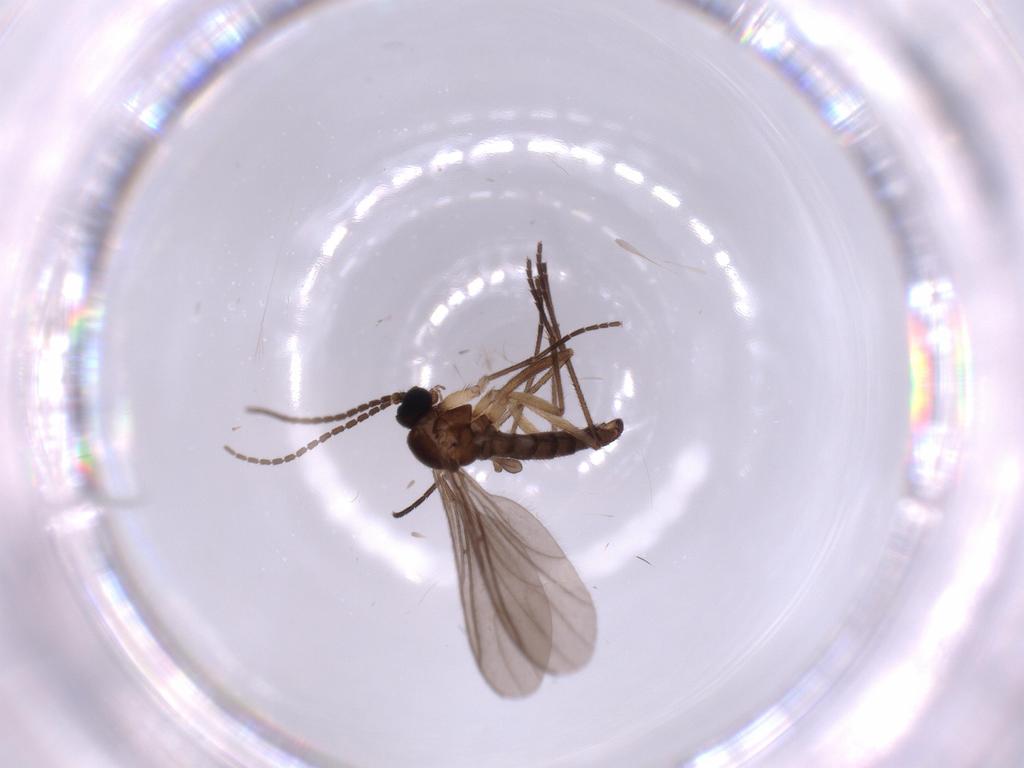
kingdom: Animalia
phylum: Arthropoda
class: Insecta
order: Diptera
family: Sciaridae
